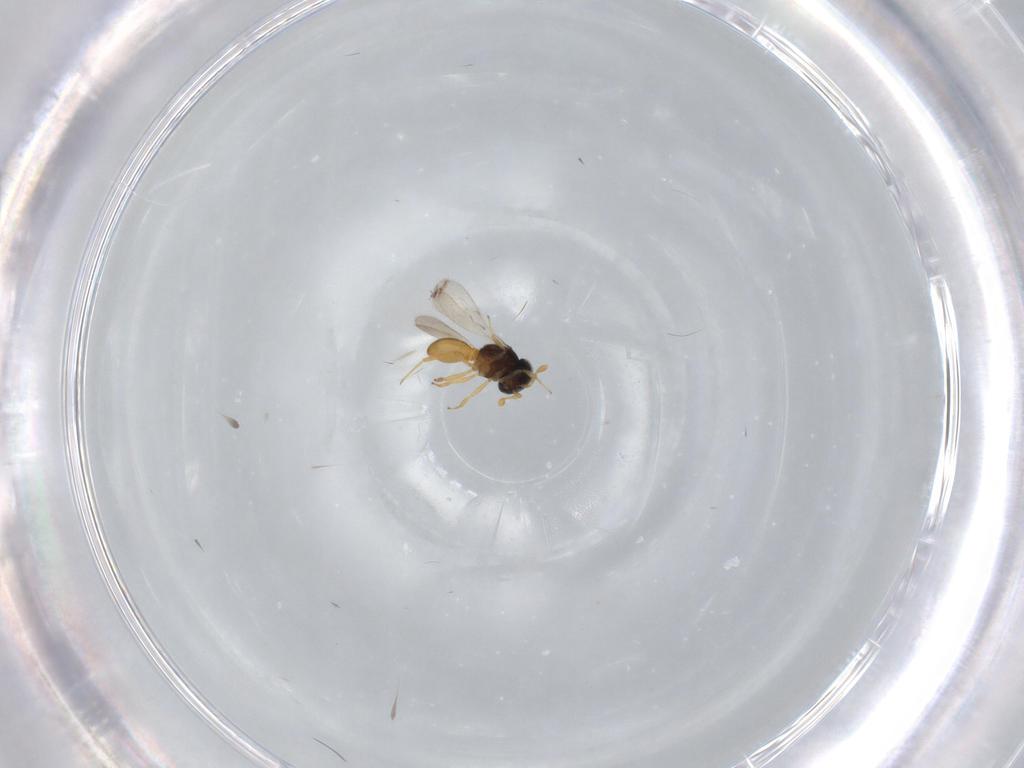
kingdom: Animalia
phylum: Arthropoda
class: Insecta
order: Hymenoptera
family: Scelionidae
